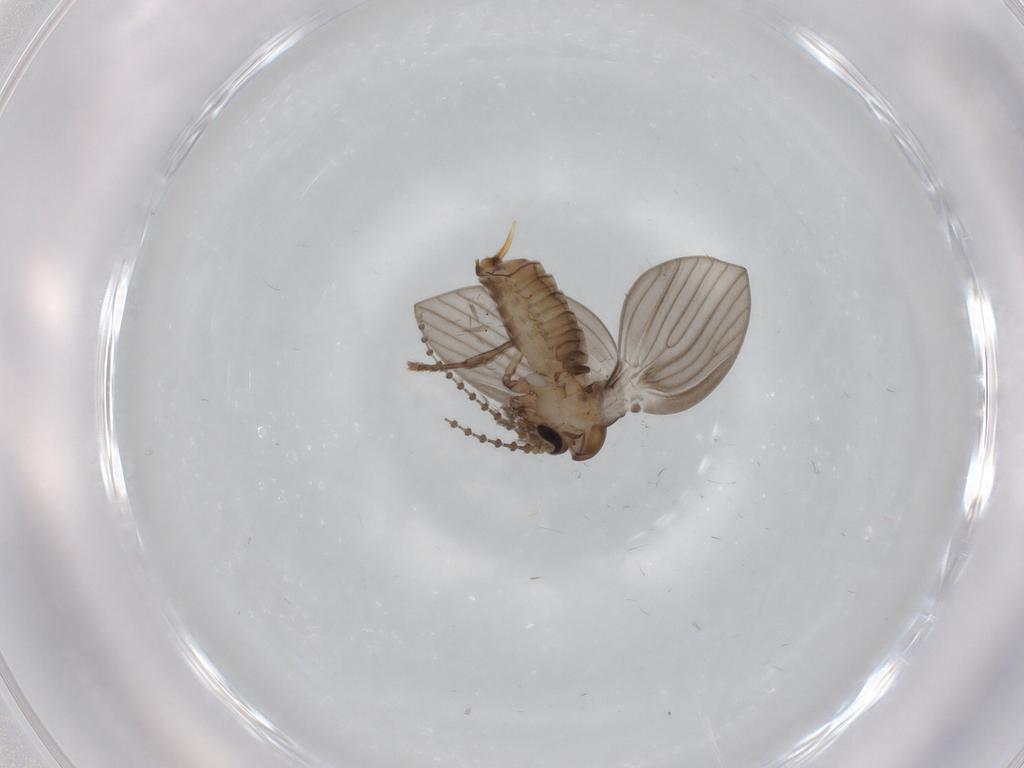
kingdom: Animalia
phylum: Arthropoda
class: Insecta
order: Diptera
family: Psychodidae
